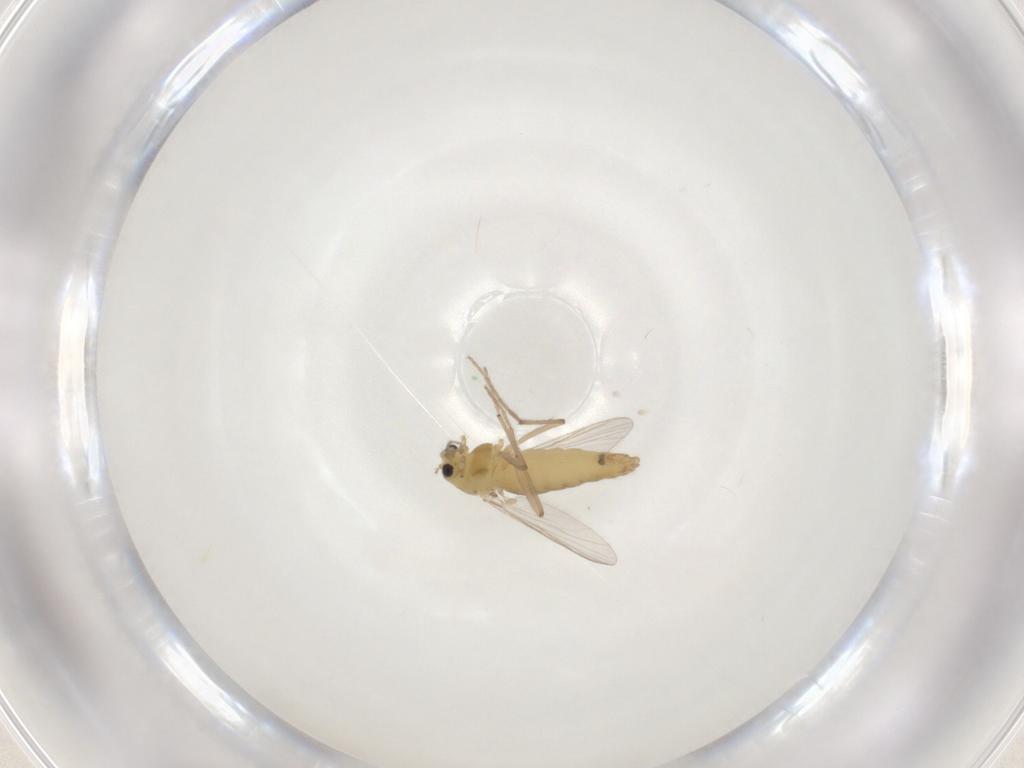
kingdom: Animalia
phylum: Arthropoda
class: Insecta
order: Diptera
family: Chironomidae
